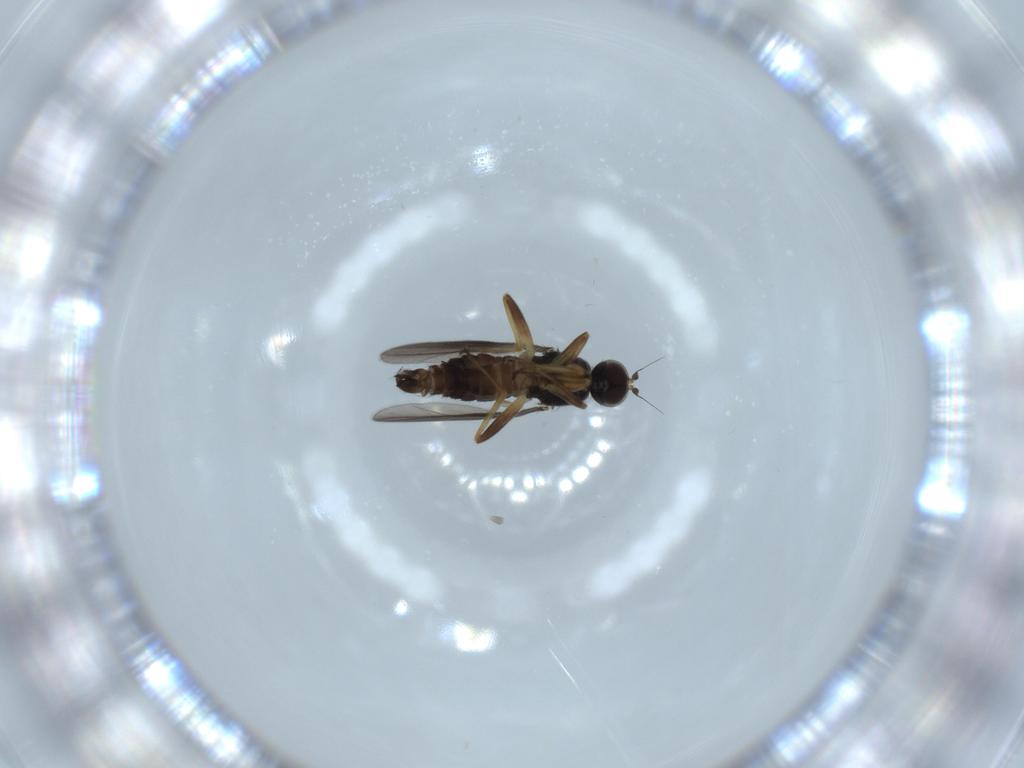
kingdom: Animalia
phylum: Arthropoda
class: Insecta
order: Diptera
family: Hybotidae
